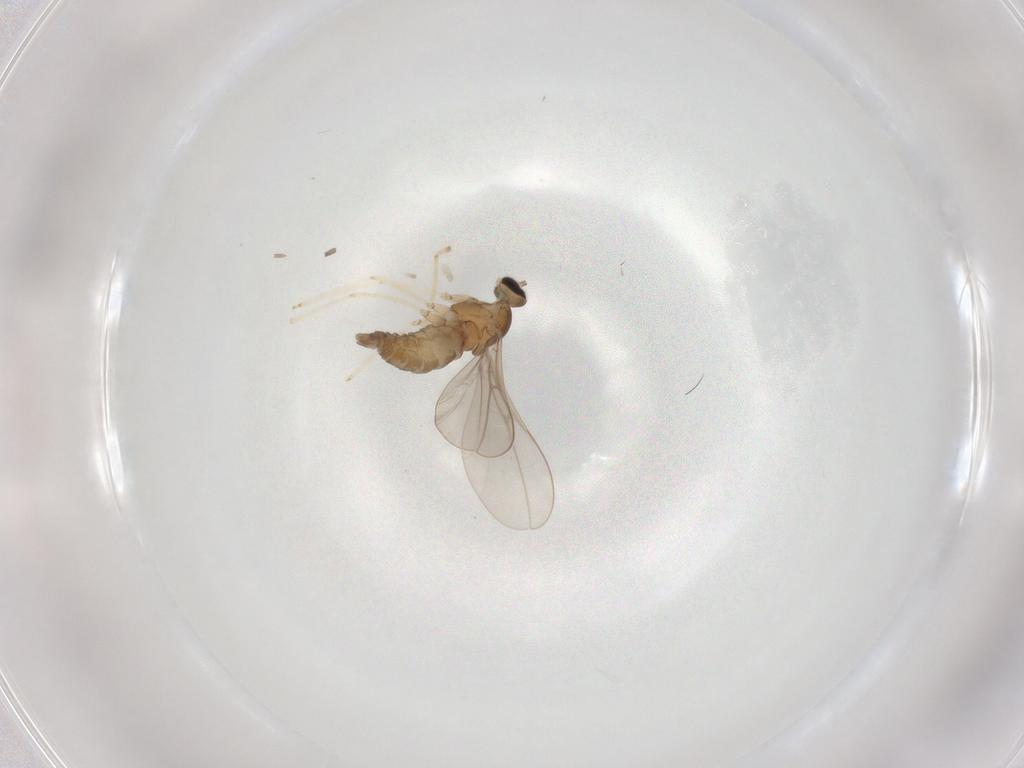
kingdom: Animalia
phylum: Arthropoda
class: Insecta
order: Diptera
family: Cecidomyiidae
